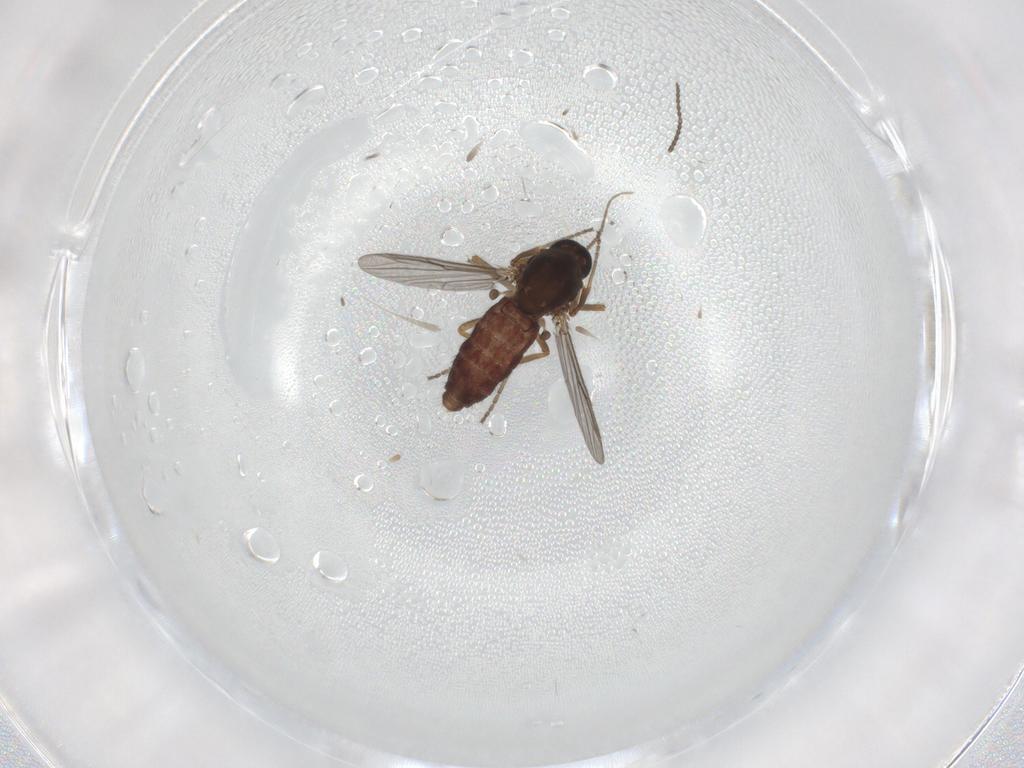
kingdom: Animalia
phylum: Arthropoda
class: Insecta
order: Diptera
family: Ceratopogonidae
